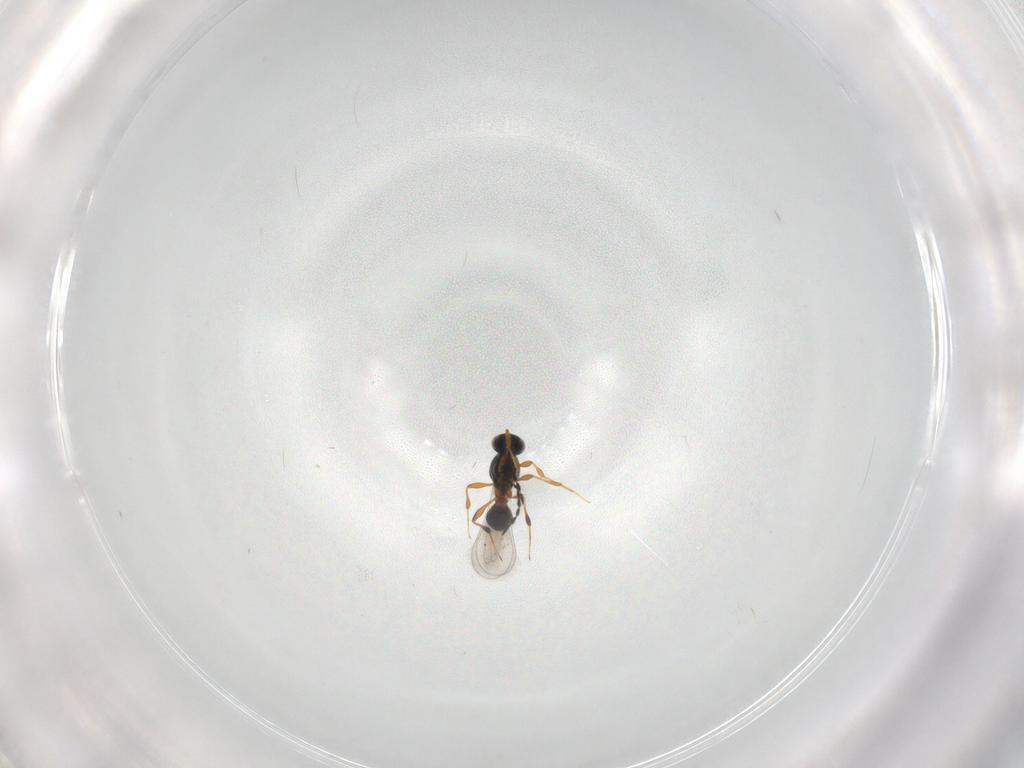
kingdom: Animalia
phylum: Arthropoda
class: Insecta
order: Hymenoptera
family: Platygastridae
